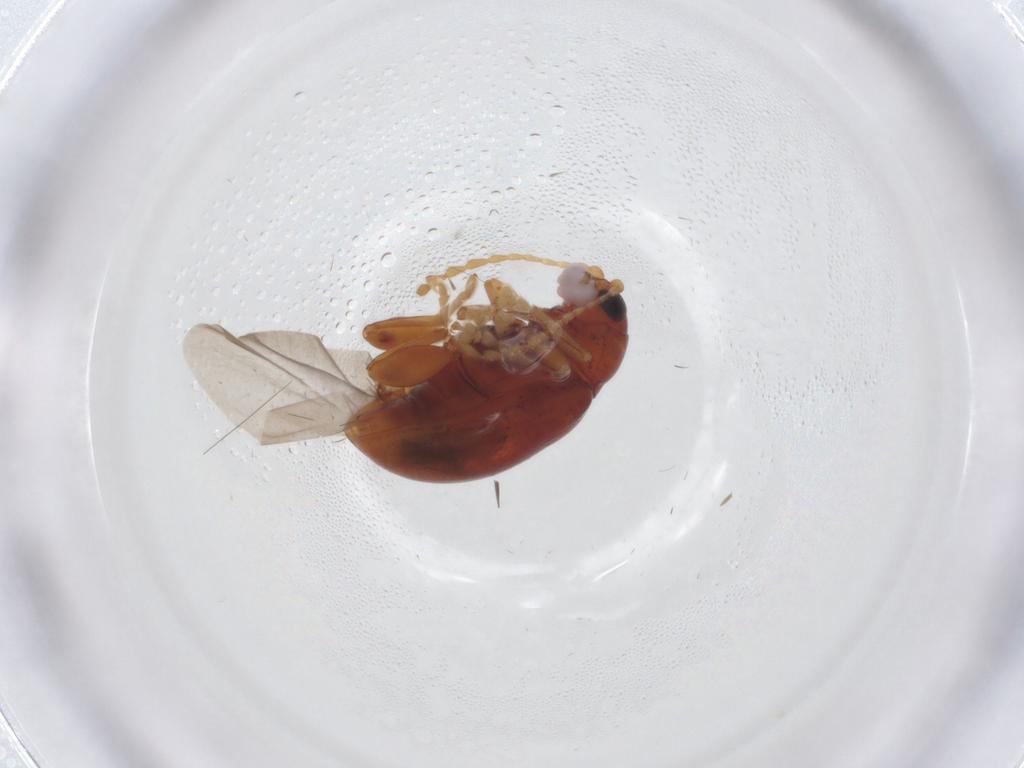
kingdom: Animalia
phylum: Arthropoda
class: Insecta
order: Coleoptera
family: Chrysomelidae
